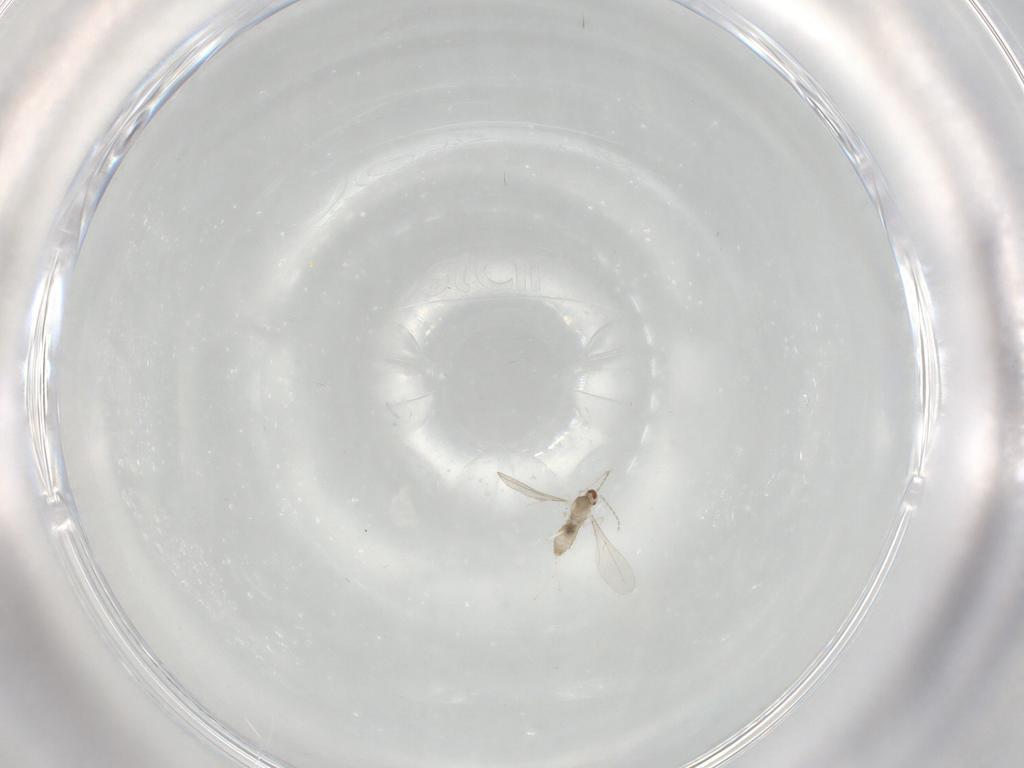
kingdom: Animalia
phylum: Arthropoda
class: Insecta
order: Diptera
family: Cecidomyiidae
